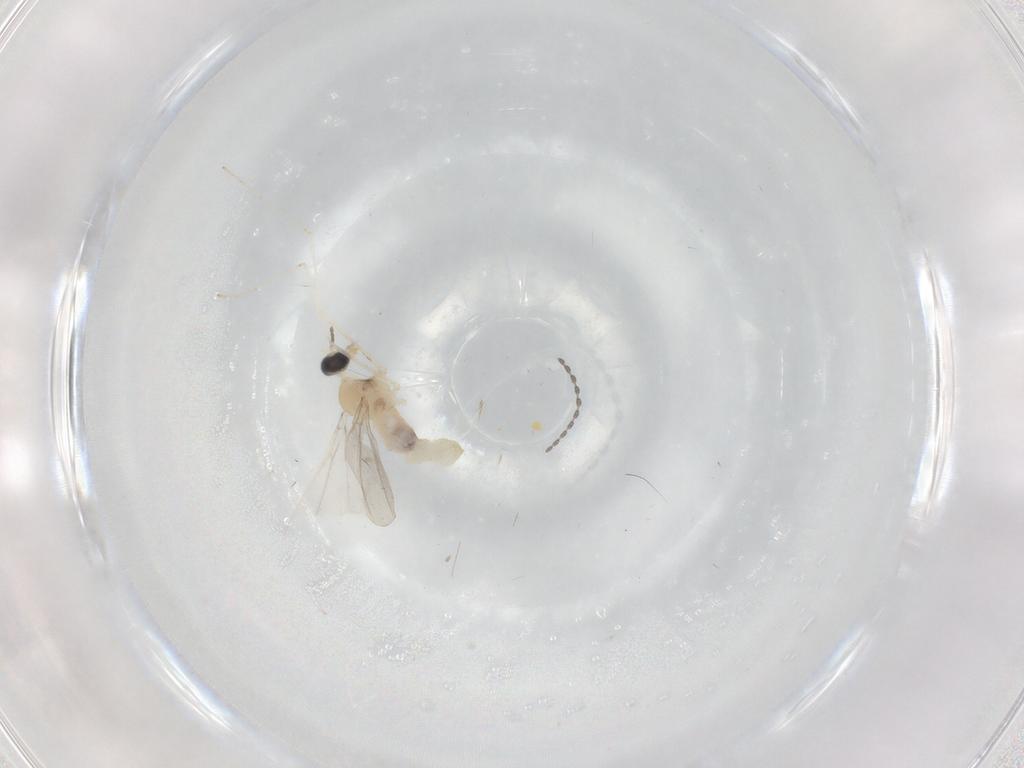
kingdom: Animalia
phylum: Arthropoda
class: Insecta
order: Diptera
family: Cecidomyiidae
